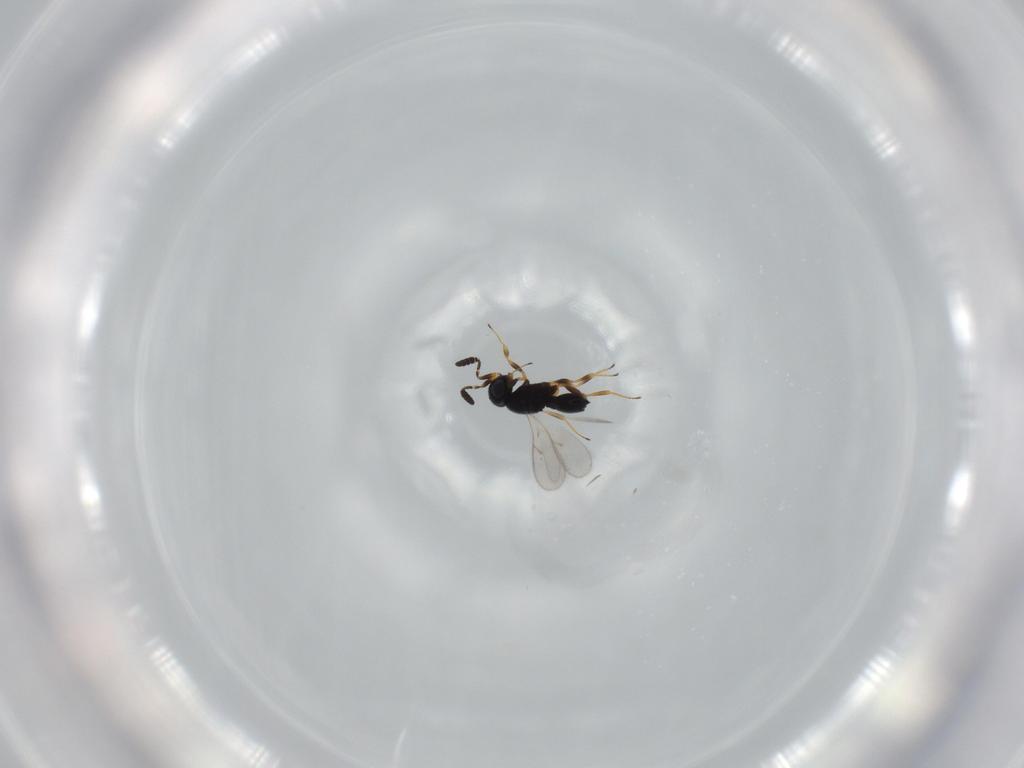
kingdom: Animalia
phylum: Arthropoda
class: Insecta
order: Hymenoptera
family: Scelionidae
